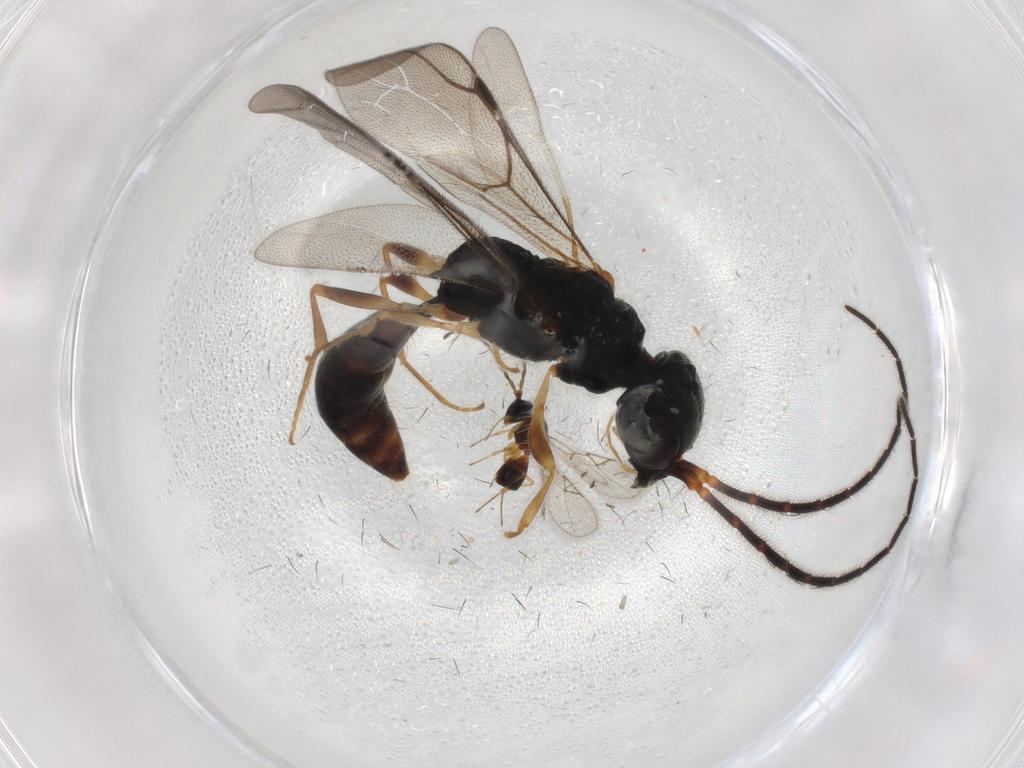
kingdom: Animalia
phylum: Arthropoda
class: Insecta
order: Diptera
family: Cecidomyiidae
